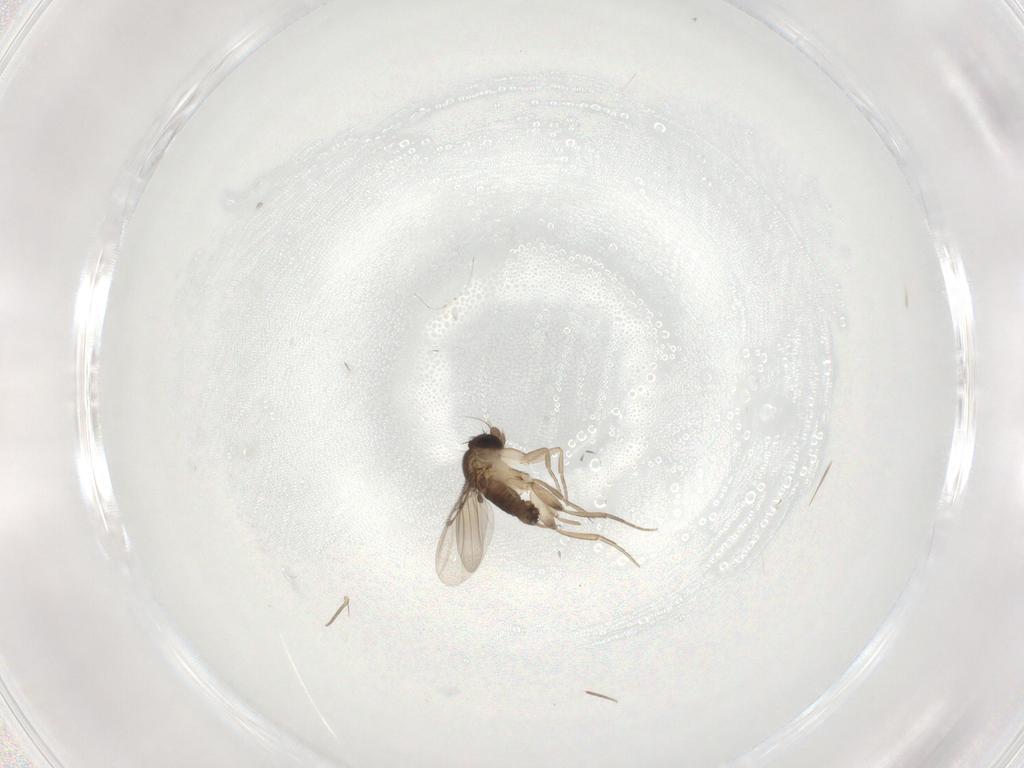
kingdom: Animalia
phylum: Arthropoda
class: Insecta
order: Diptera
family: Phoridae
